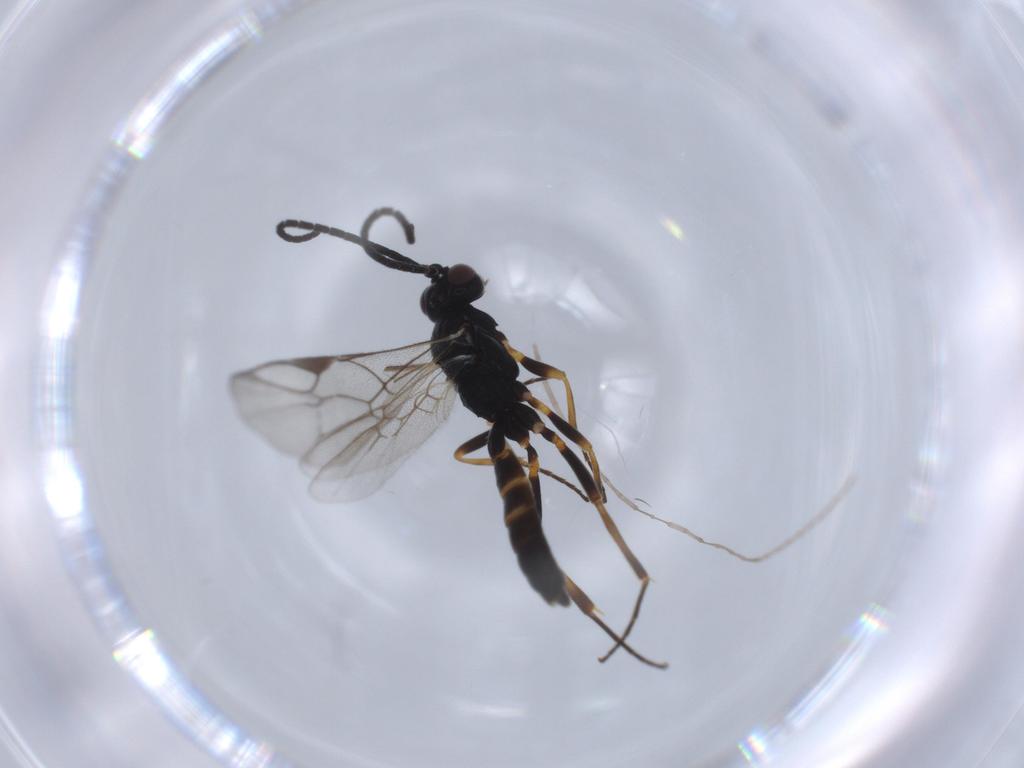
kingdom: Animalia
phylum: Arthropoda
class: Insecta
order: Hymenoptera
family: Ichneumonidae
